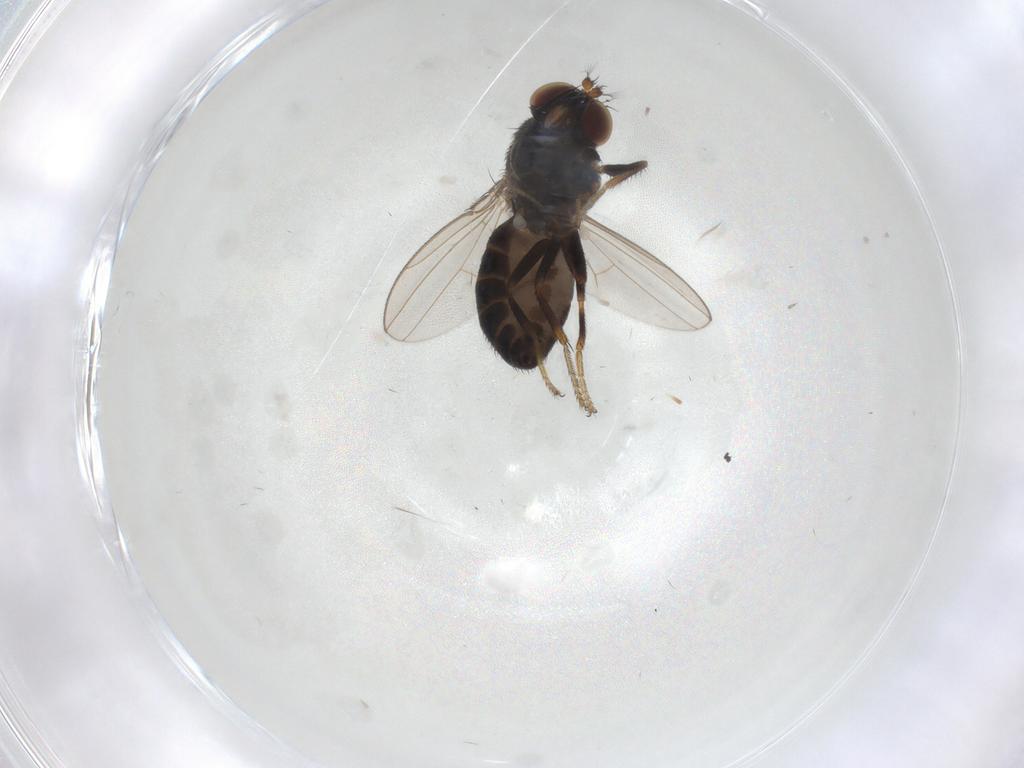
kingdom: Animalia
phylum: Arthropoda
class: Insecta
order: Diptera
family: Ephydridae
